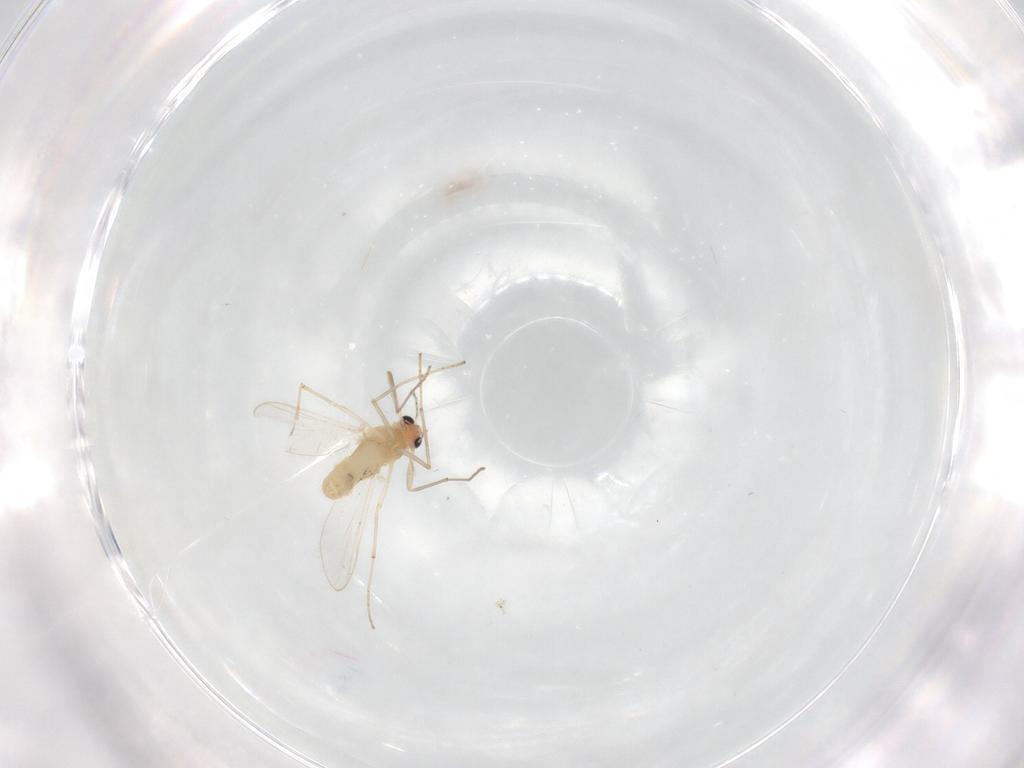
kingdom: Animalia
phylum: Arthropoda
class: Insecta
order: Diptera
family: Chironomidae
